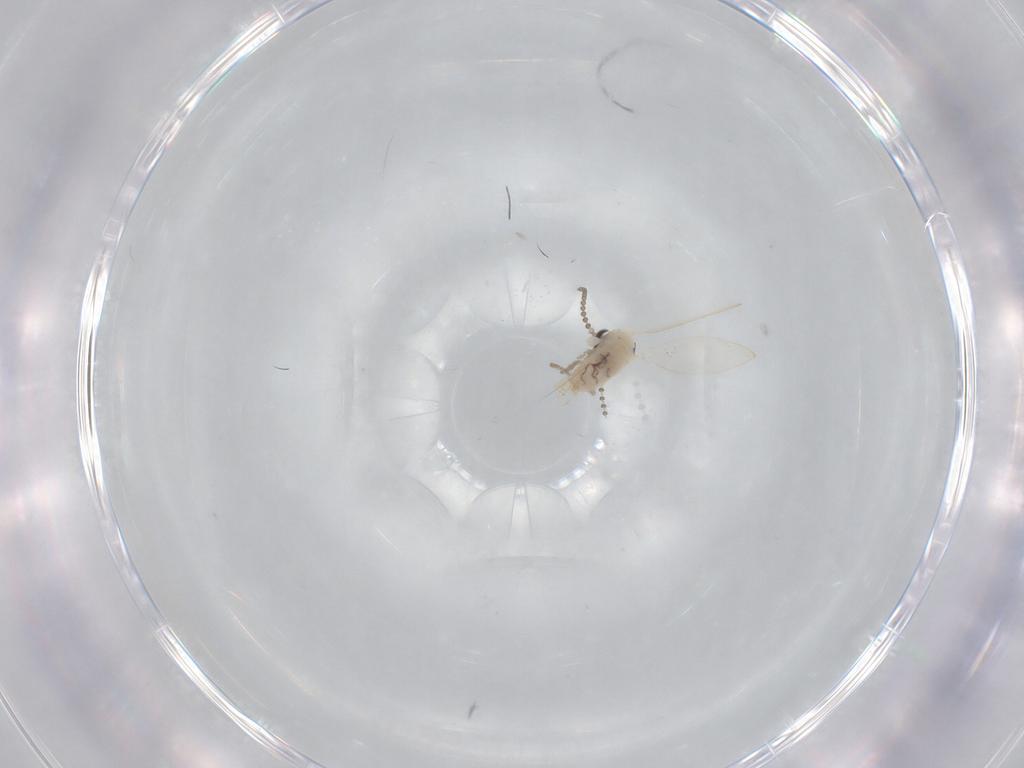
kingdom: Animalia
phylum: Arthropoda
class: Insecta
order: Diptera
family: Psychodidae
